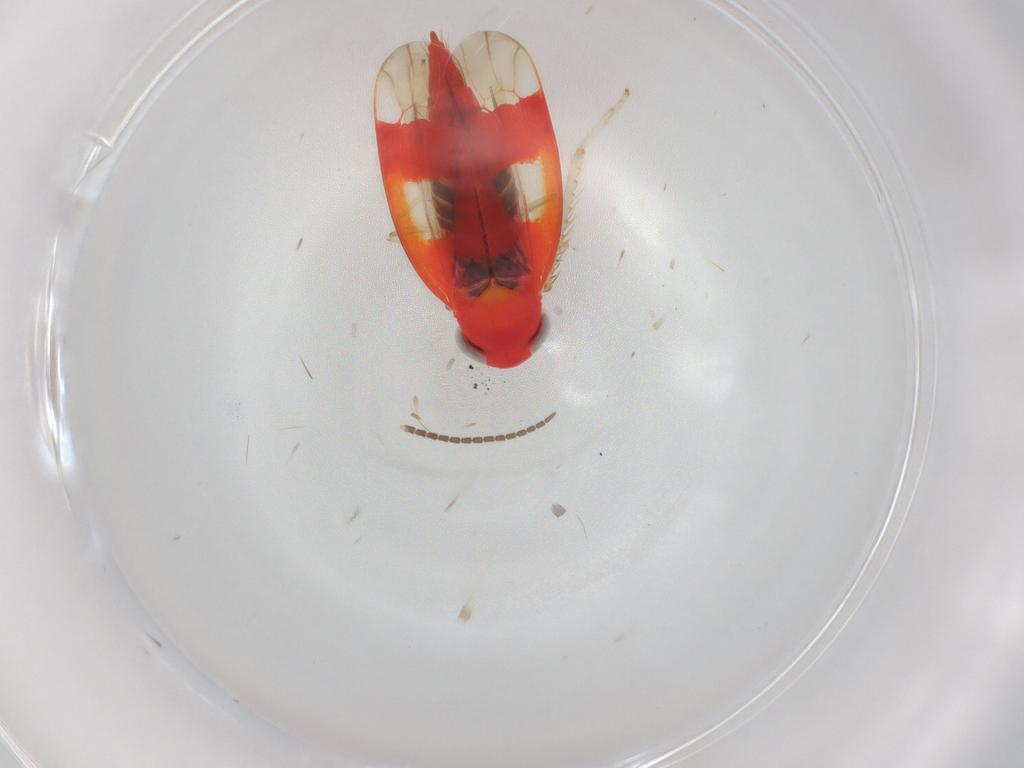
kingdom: Animalia
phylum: Arthropoda
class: Insecta
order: Hemiptera
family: Cicadellidae
